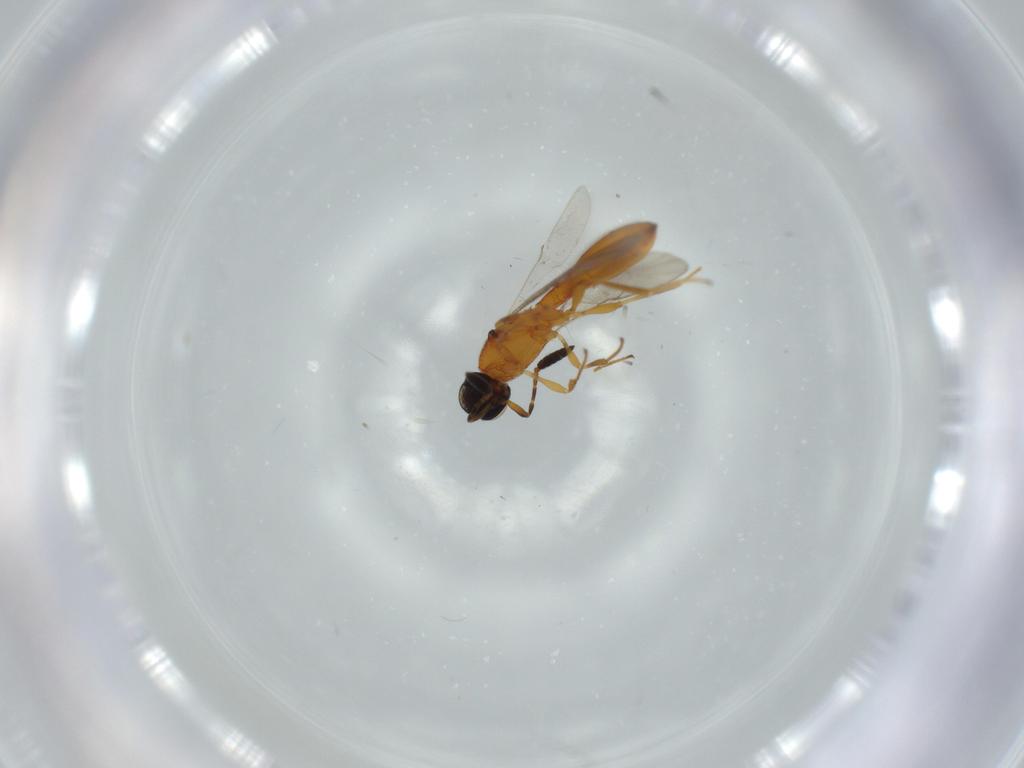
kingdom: Animalia
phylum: Arthropoda
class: Insecta
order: Hymenoptera
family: Scelionidae
